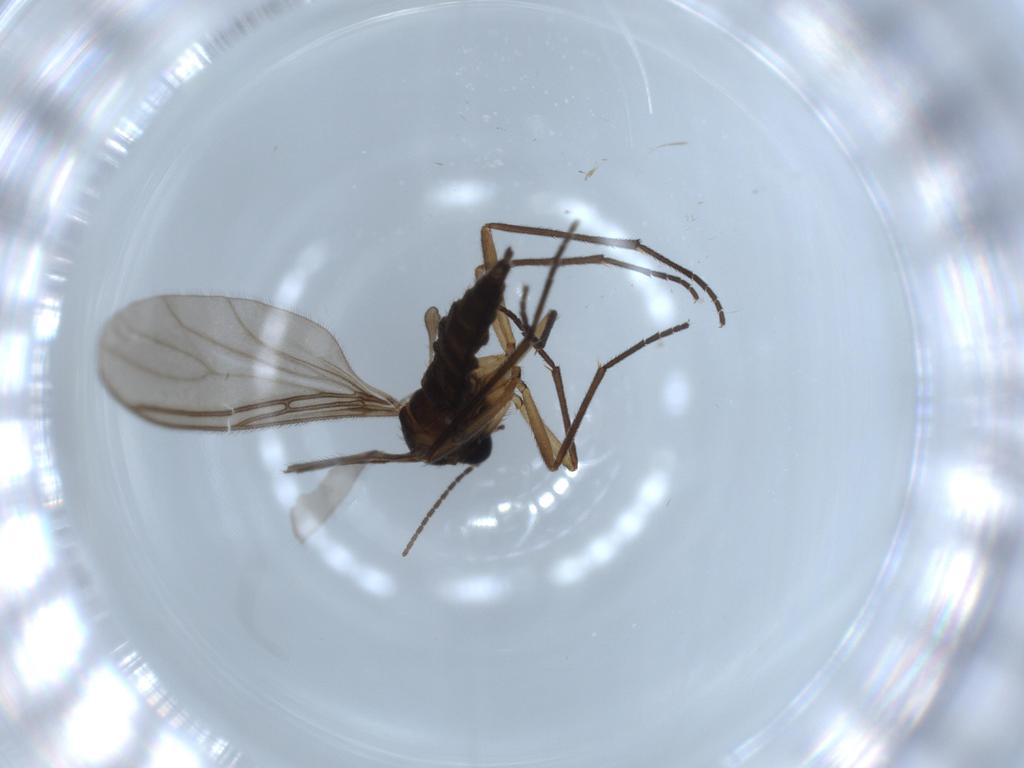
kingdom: Animalia
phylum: Arthropoda
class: Insecta
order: Diptera
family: Sciaridae
